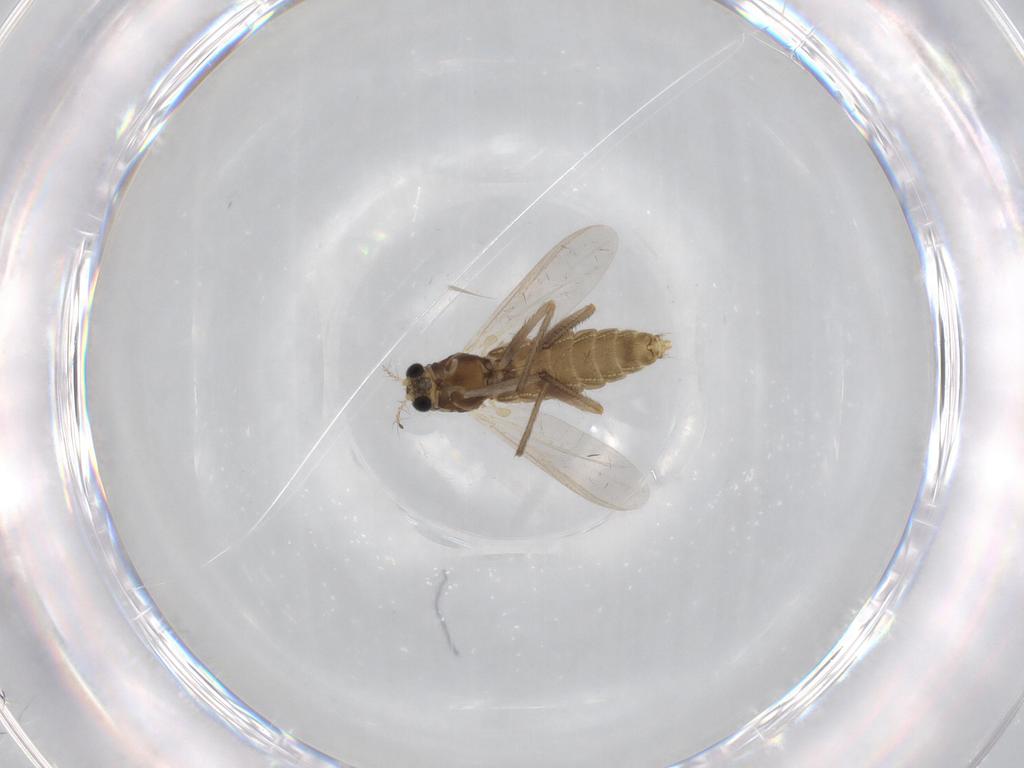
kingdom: Animalia
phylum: Arthropoda
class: Insecta
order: Diptera
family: Chironomidae
